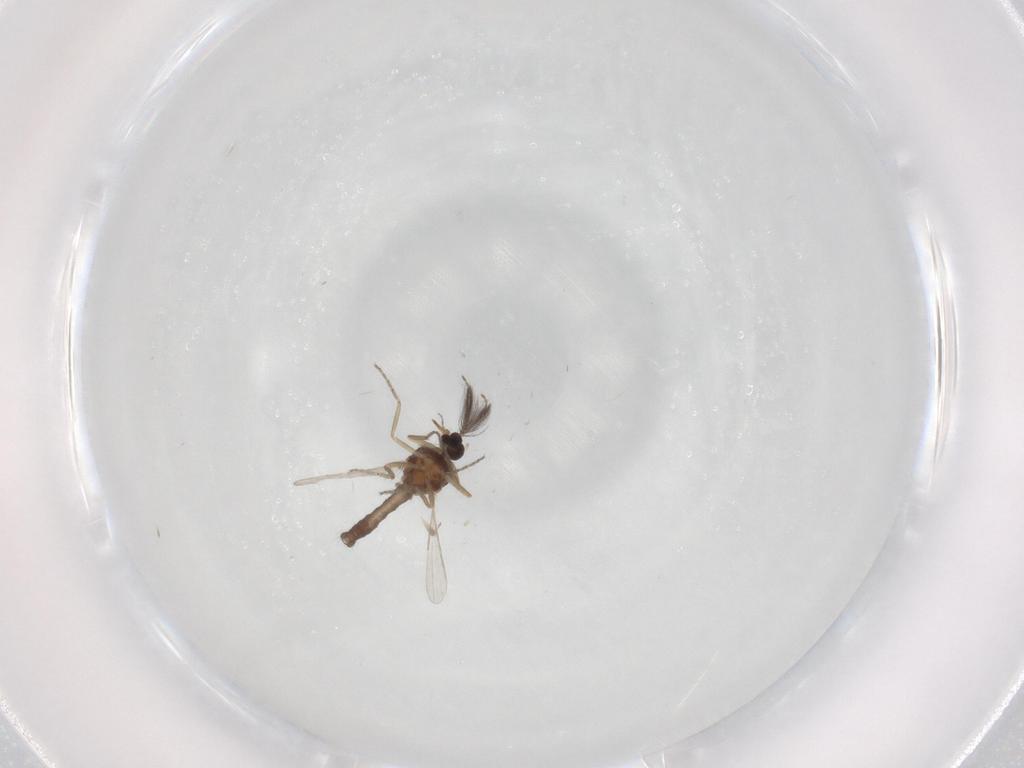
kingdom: Animalia
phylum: Arthropoda
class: Insecta
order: Diptera
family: Ceratopogonidae
